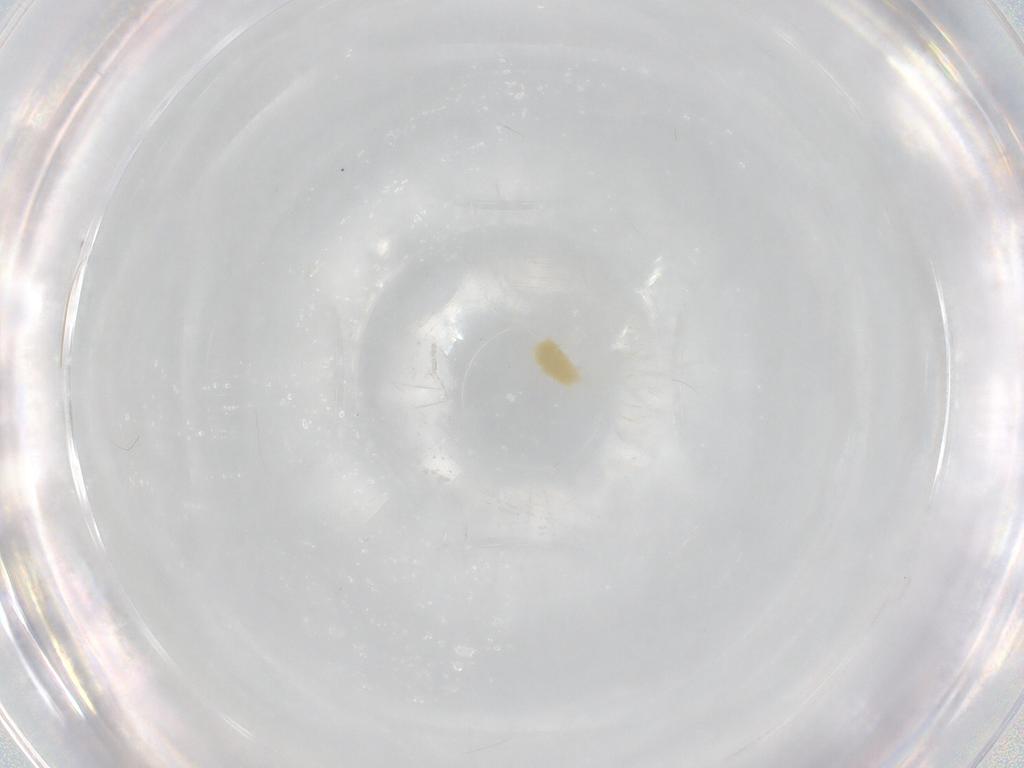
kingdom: Animalia
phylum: Arthropoda
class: Arachnida
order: Trombidiformes
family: Tetranychidae
